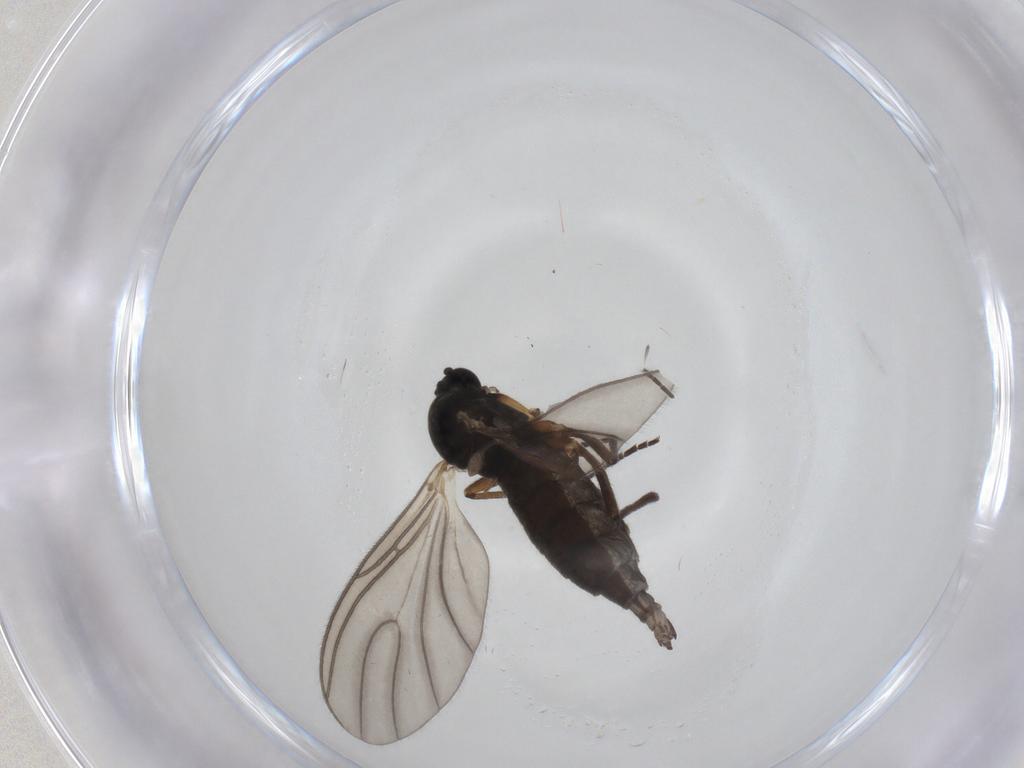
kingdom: Animalia
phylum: Arthropoda
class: Insecta
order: Diptera
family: Sciaridae
